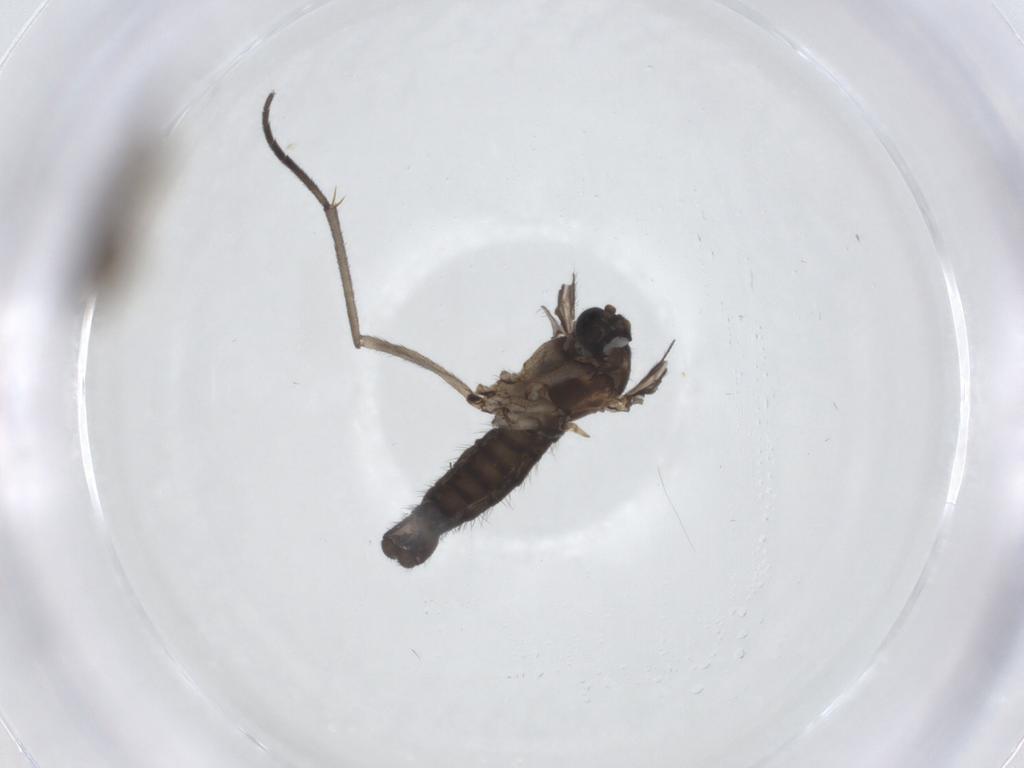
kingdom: Animalia
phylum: Arthropoda
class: Insecta
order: Diptera
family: Sciaridae
